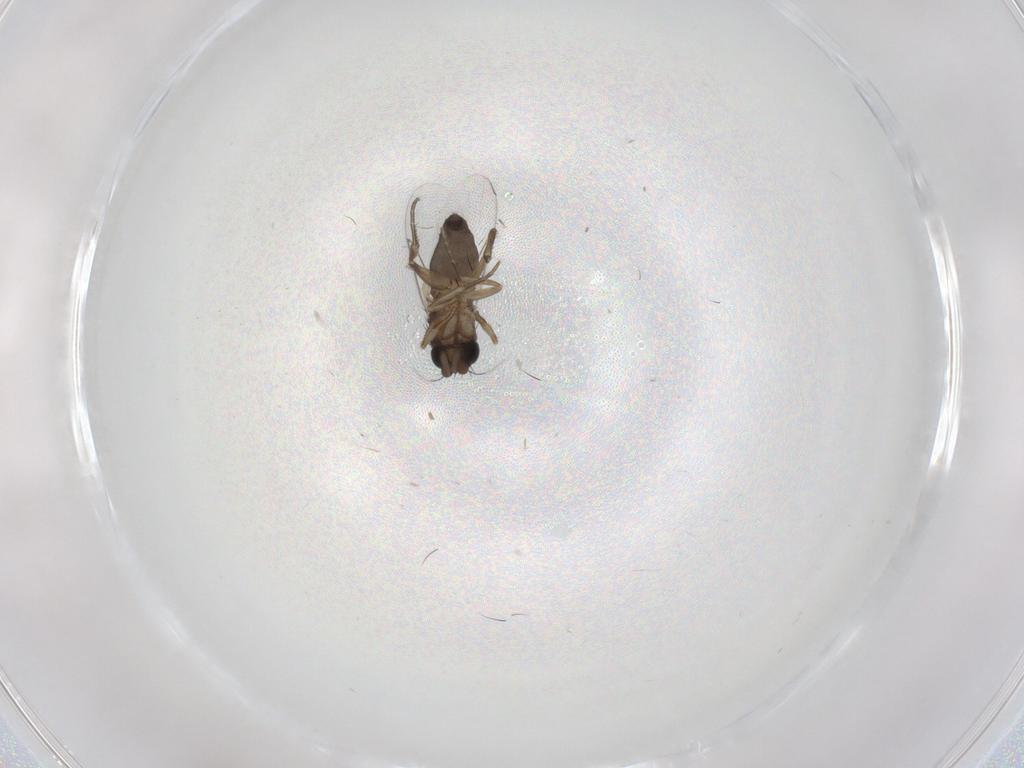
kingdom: Animalia
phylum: Arthropoda
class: Insecta
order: Diptera
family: Phoridae
